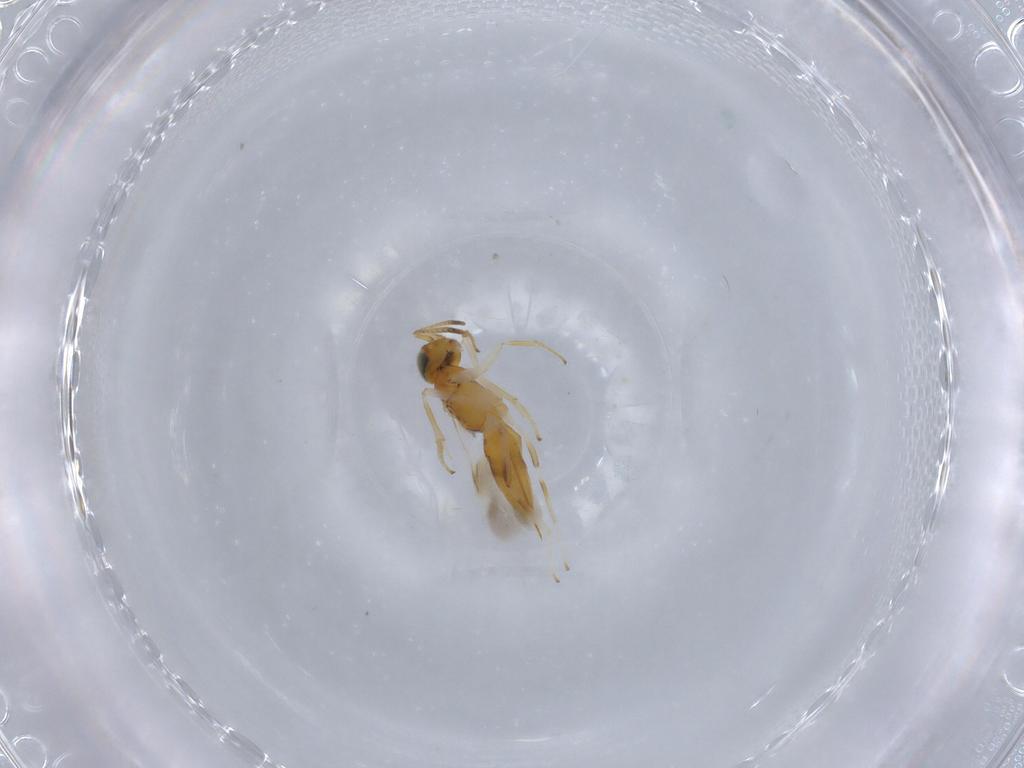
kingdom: Animalia
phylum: Arthropoda
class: Insecta
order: Hymenoptera
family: Encyrtidae
